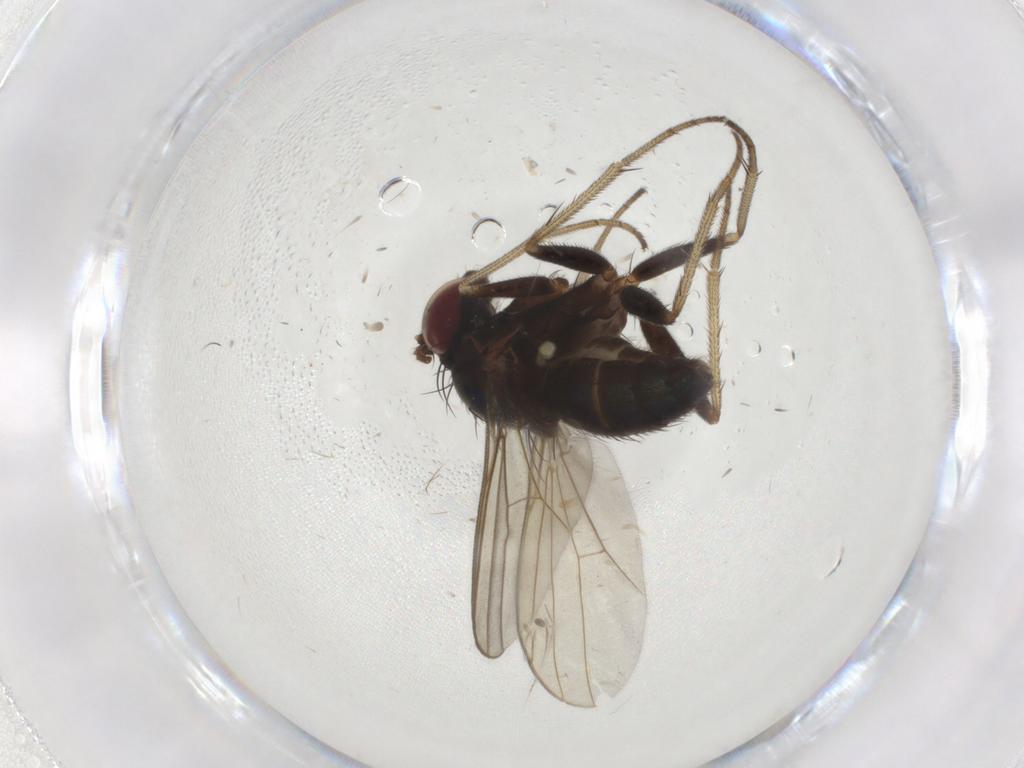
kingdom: Animalia
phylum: Arthropoda
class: Insecta
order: Diptera
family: Dolichopodidae
